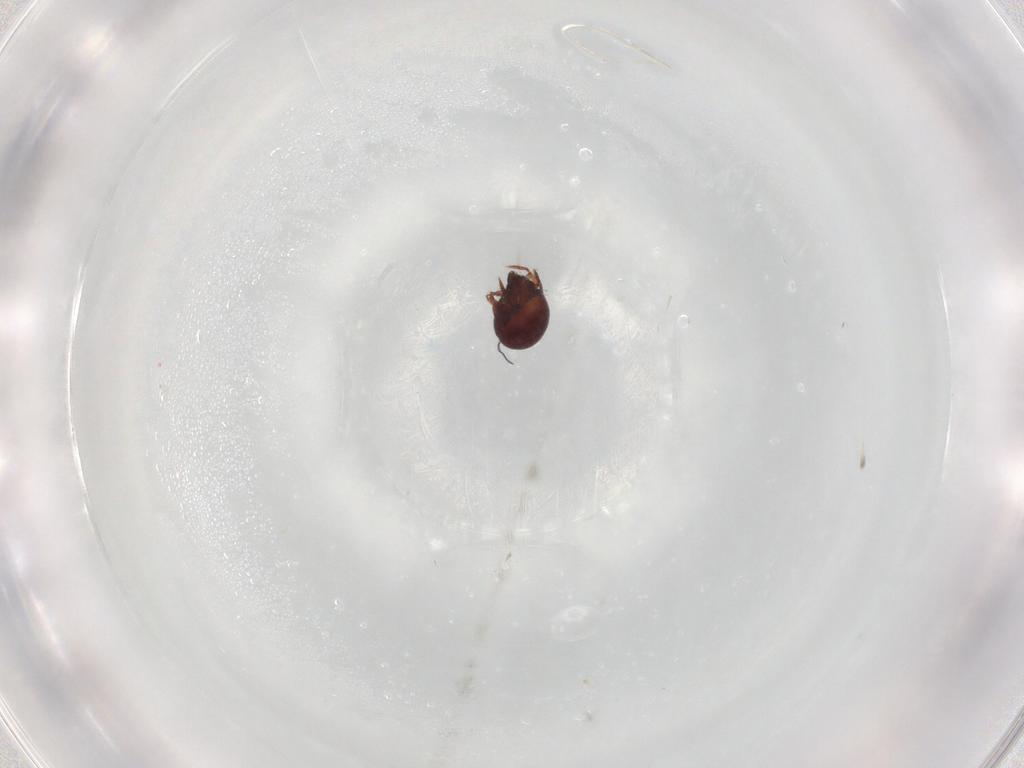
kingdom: Animalia
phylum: Arthropoda
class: Arachnida
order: Sarcoptiformes
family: Humerobatidae
